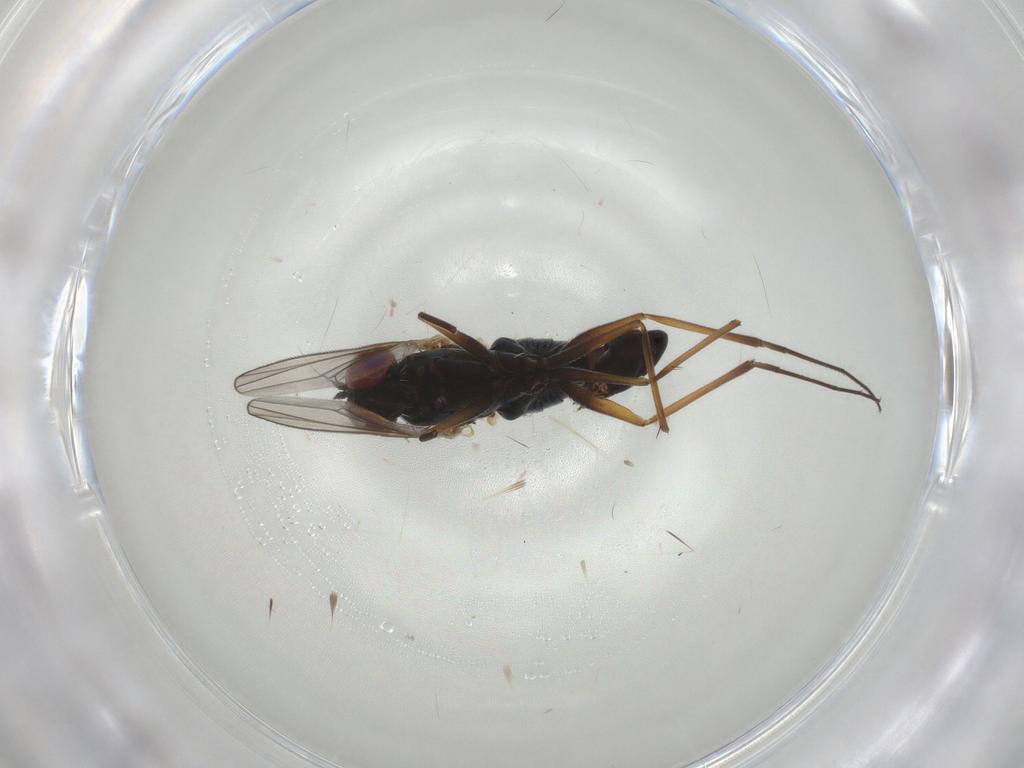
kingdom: Animalia
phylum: Arthropoda
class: Insecta
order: Diptera
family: Dolichopodidae
